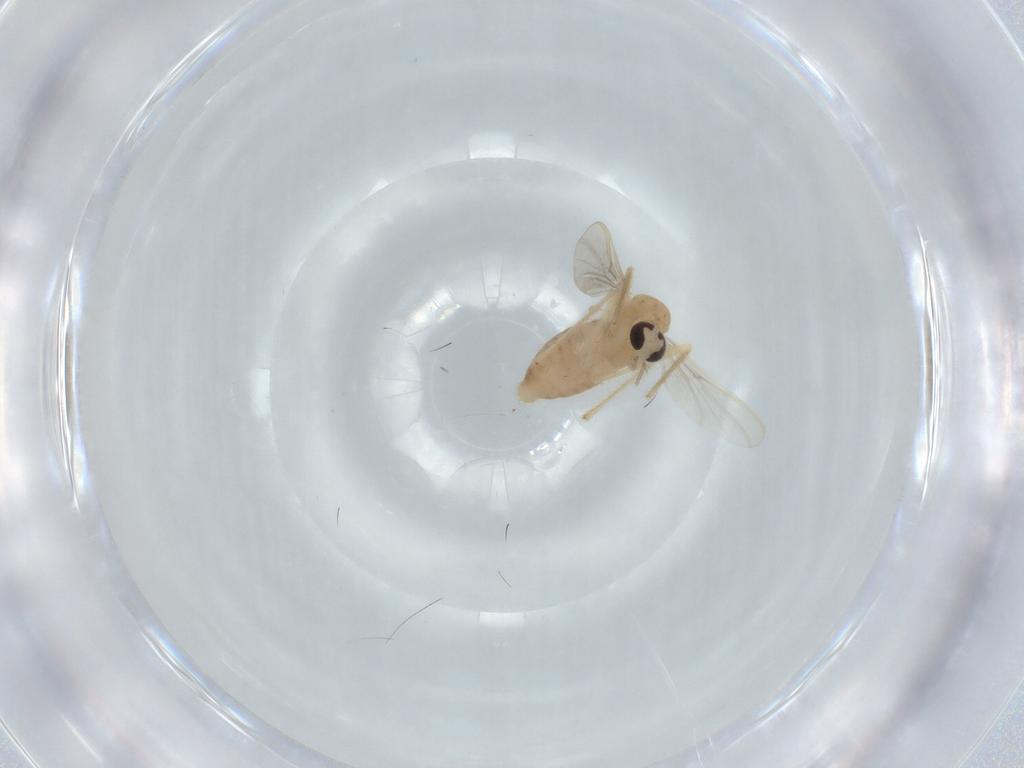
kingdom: Animalia
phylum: Arthropoda
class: Insecta
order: Diptera
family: Chironomidae
